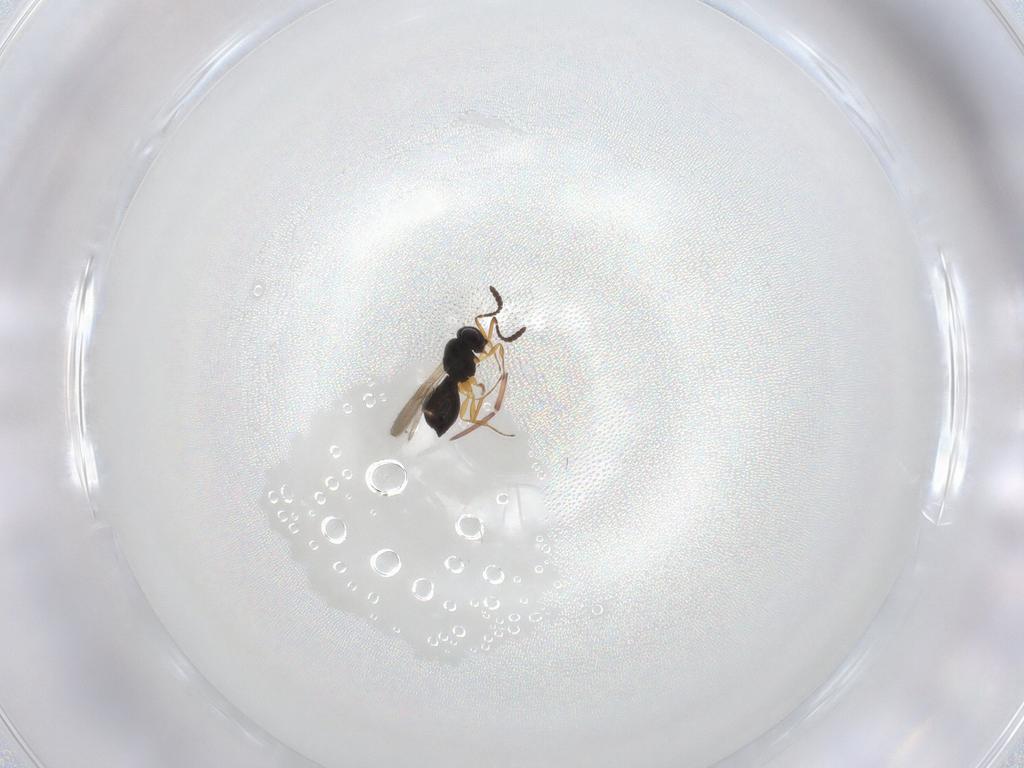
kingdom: Animalia
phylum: Arthropoda
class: Insecta
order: Hymenoptera
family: Scelionidae
